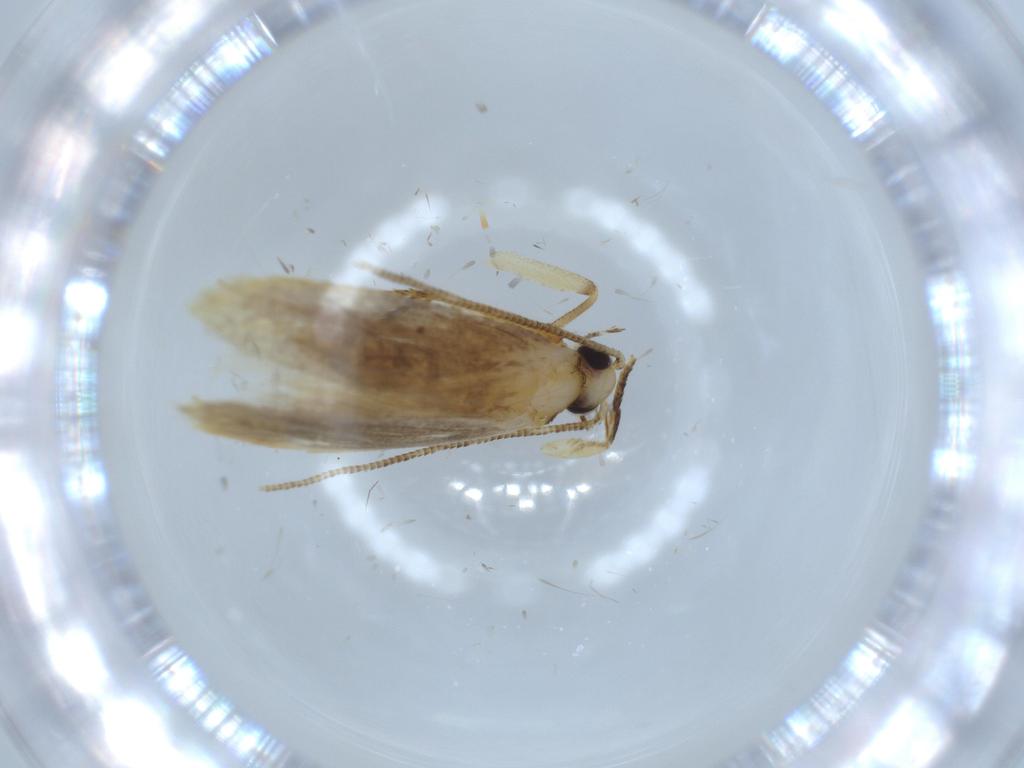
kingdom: Animalia
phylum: Arthropoda
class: Insecta
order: Lepidoptera
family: Tineidae
